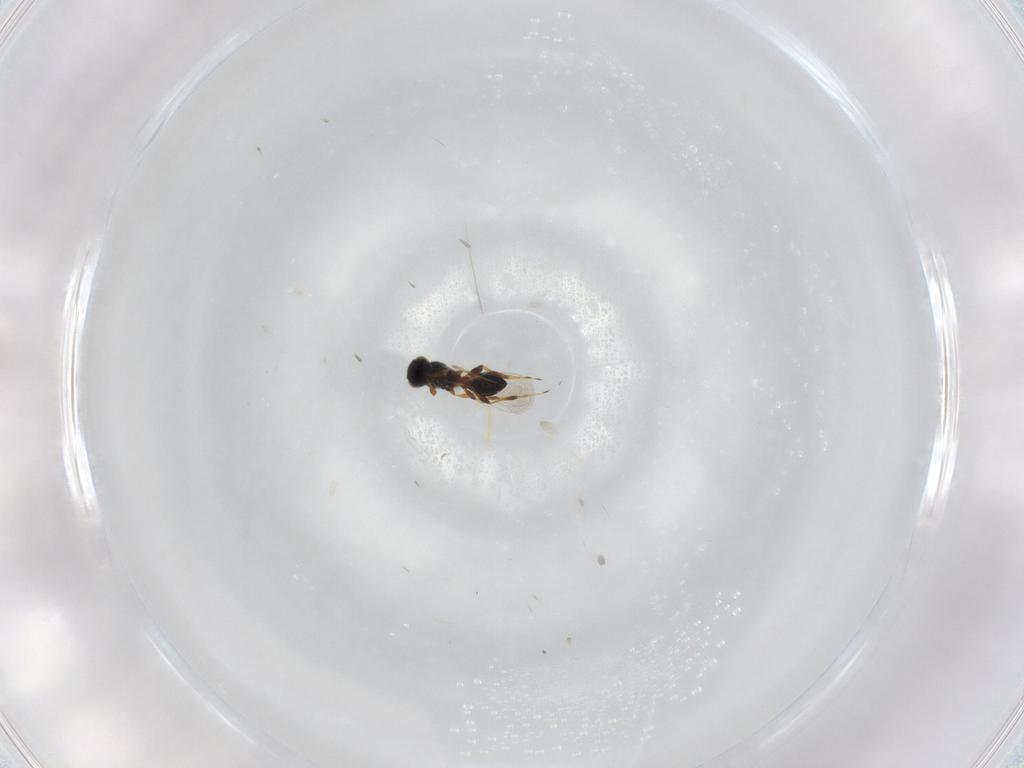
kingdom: Animalia
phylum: Arthropoda
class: Insecta
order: Hymenoptera
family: Platygastridae
